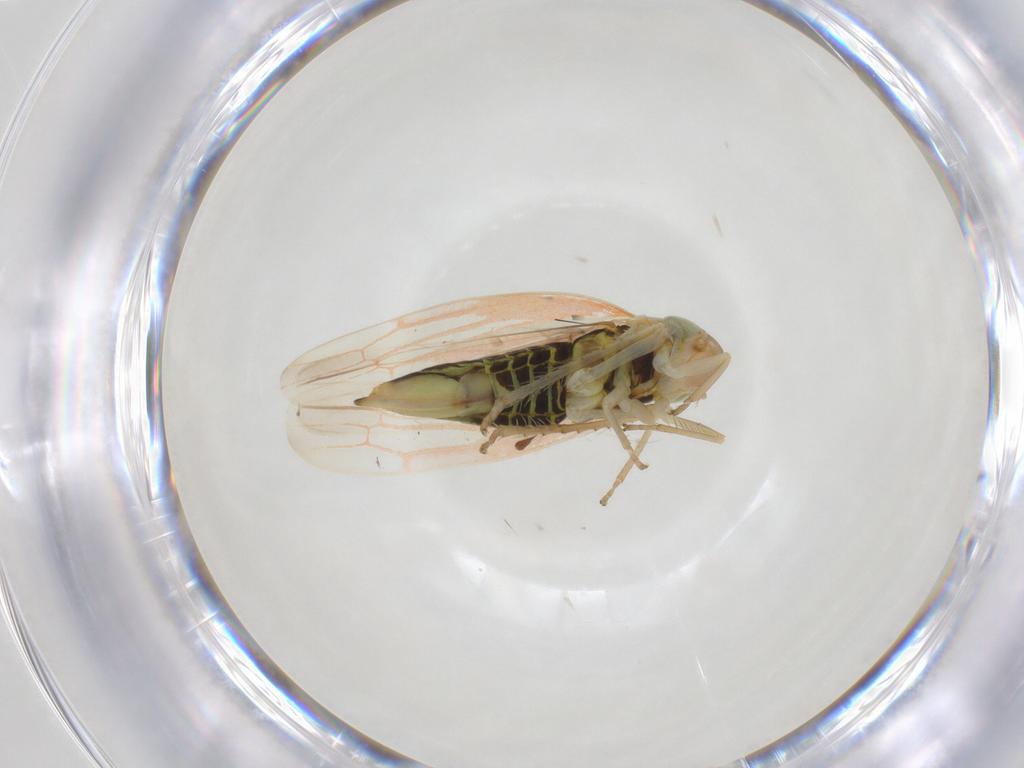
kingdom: Animalia
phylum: Arthropoda
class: Insecta
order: Hemiptera
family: Cicadellidae
